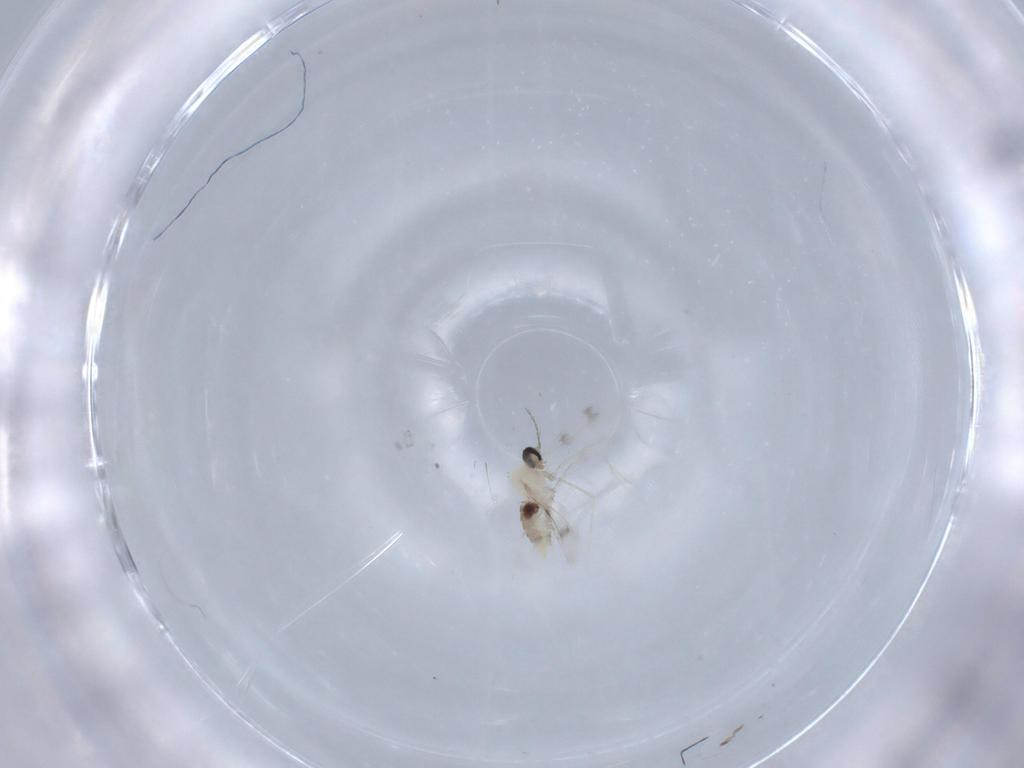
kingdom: Animalia
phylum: Arthropoda
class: Insecta
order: Diptera
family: Cecidomyiidae
